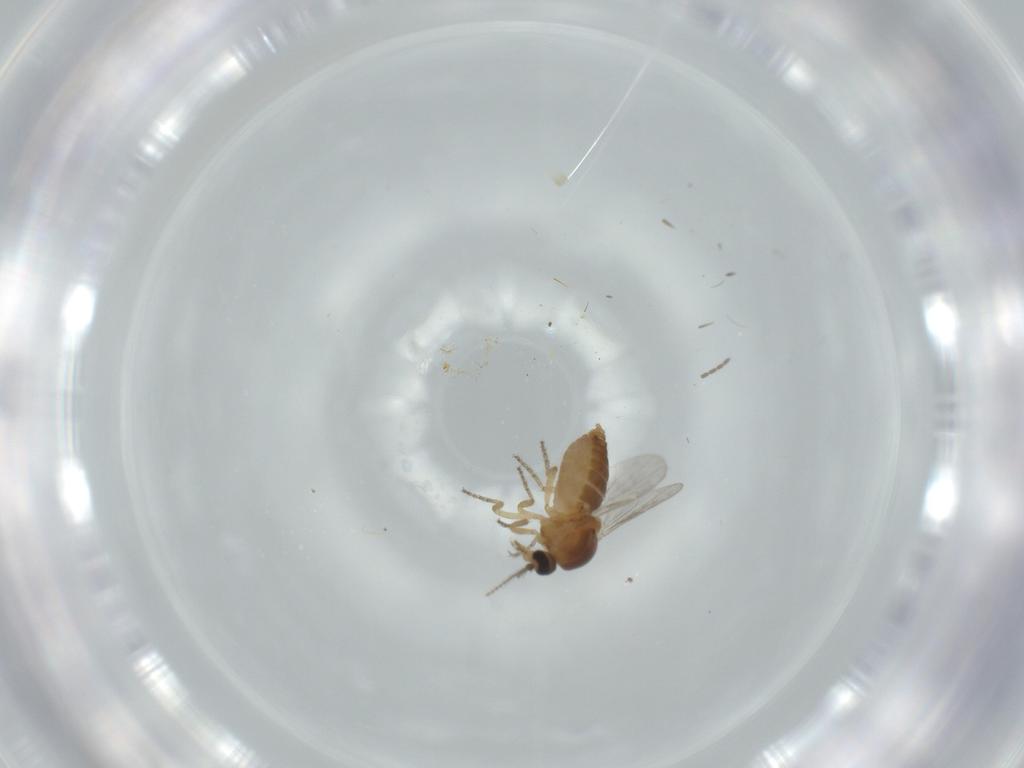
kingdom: Animalia
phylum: Arthropoda
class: Insecta
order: Diptera
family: Ceratopogonidae
